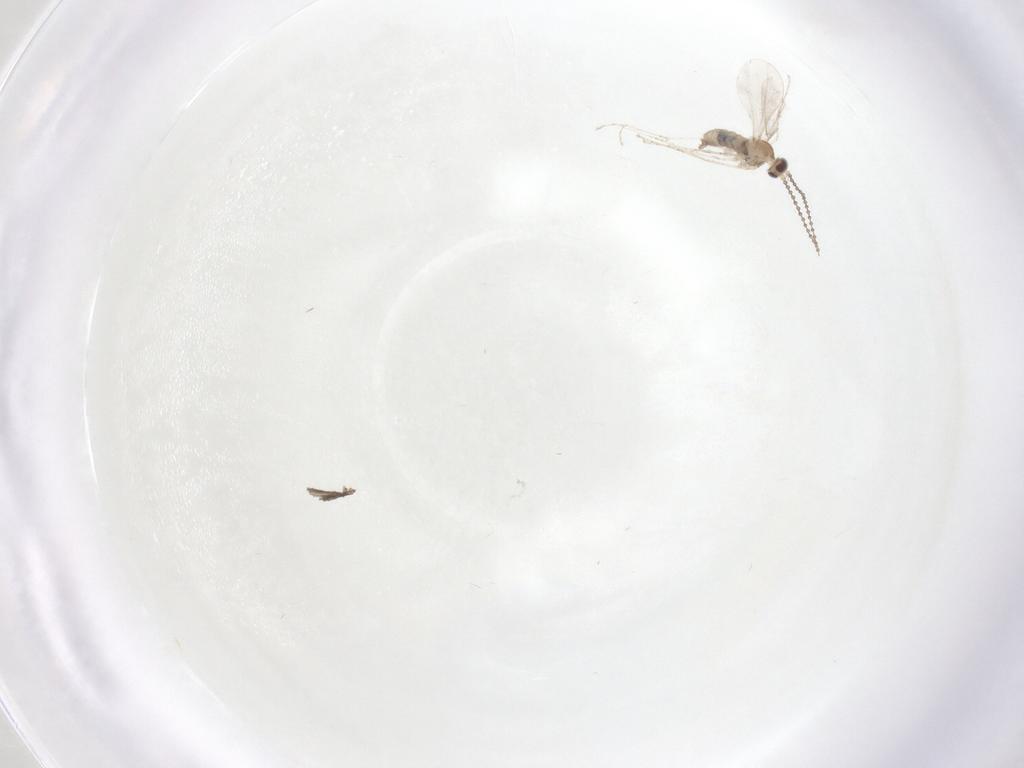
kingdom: Animalia
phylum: Arthropoda
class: Insecta
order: Diptera
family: Cecidomyiidae
